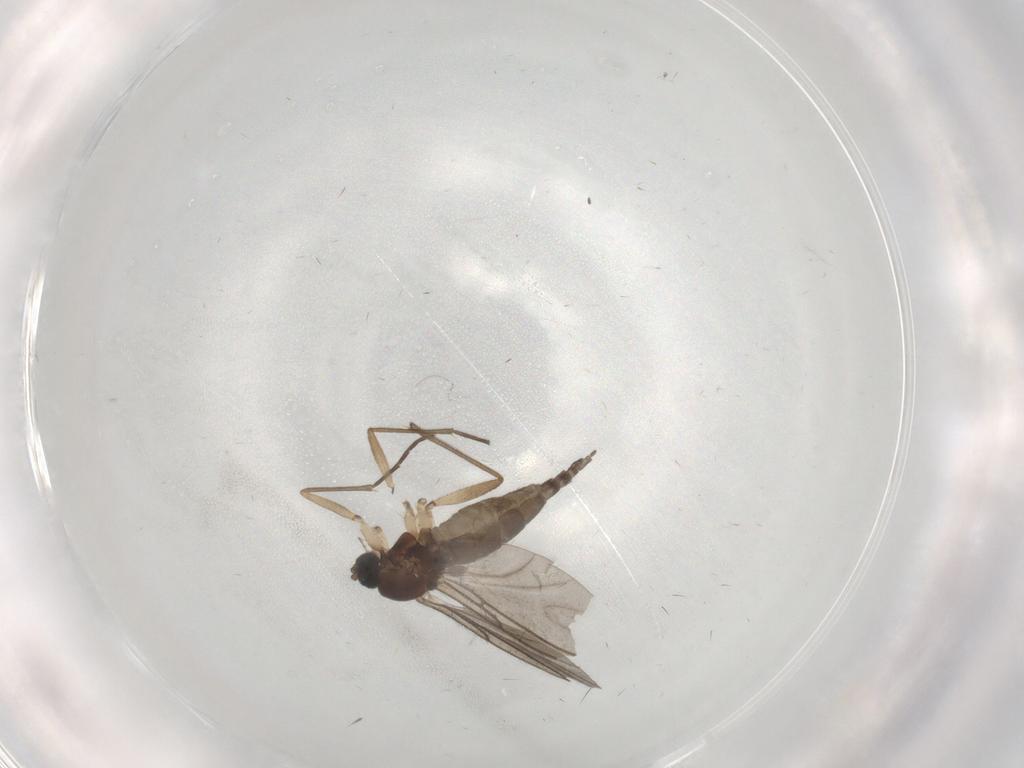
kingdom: Animalia
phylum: Arthropoda
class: Insecta
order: Diptera
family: Sciaridae
